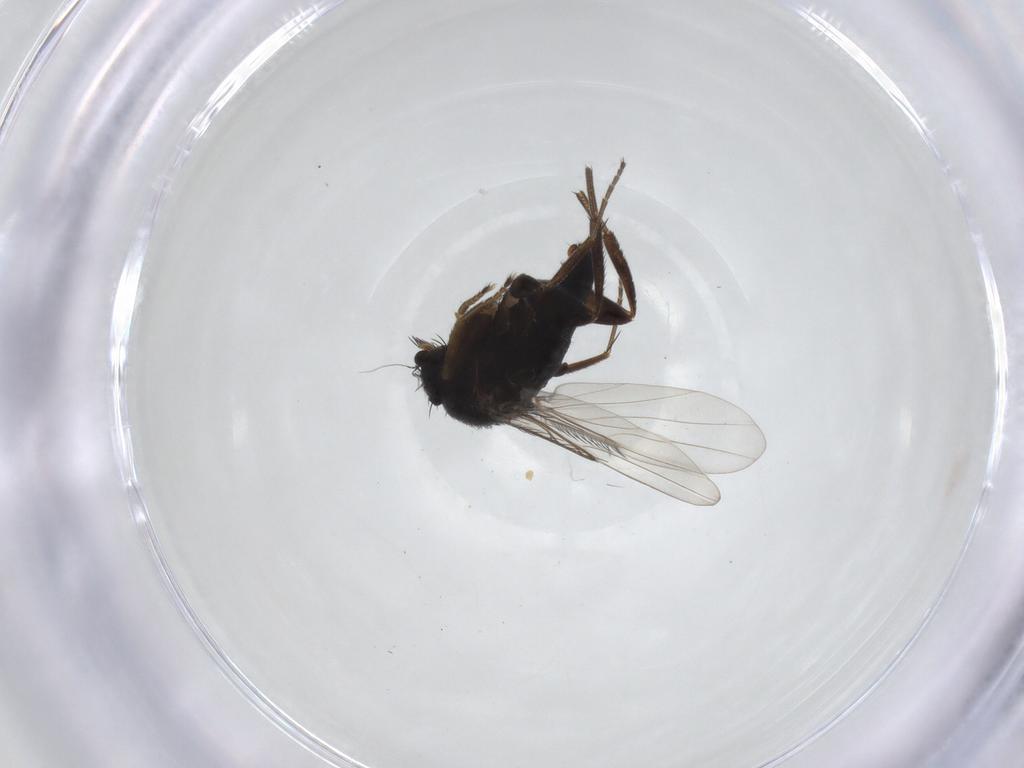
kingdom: Animalia
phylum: Arthropoda
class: Insecta
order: Diptera
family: Phoridae
